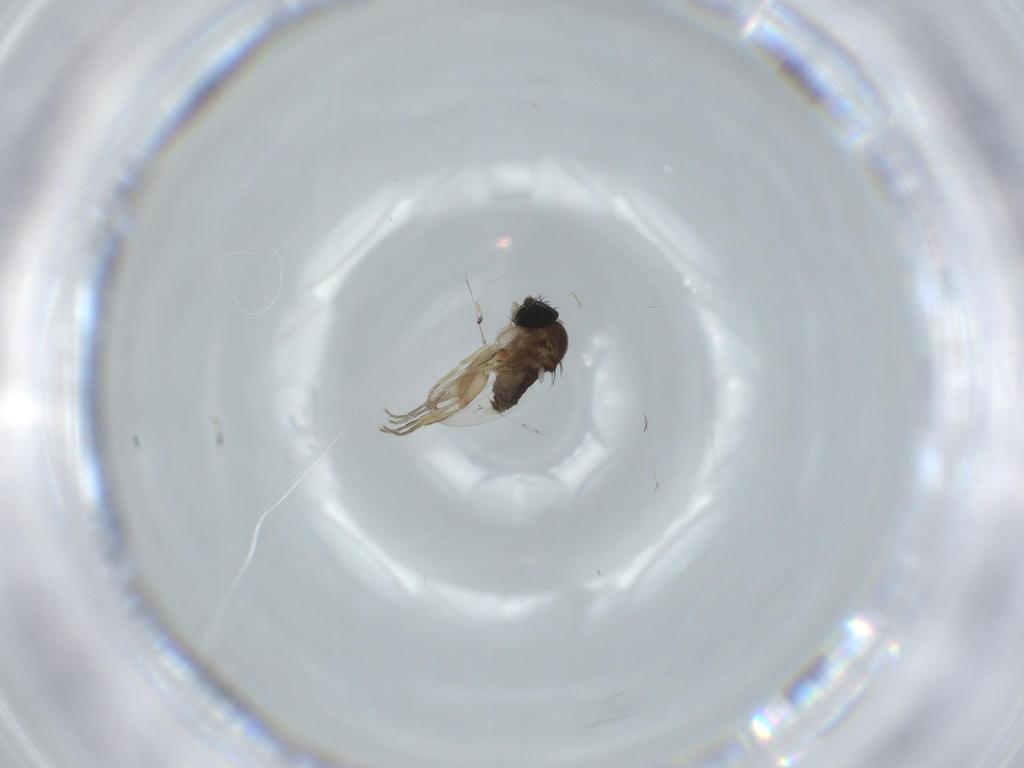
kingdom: Animalia
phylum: Arthropoda
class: Insecta
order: Diptera
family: Phoridae
